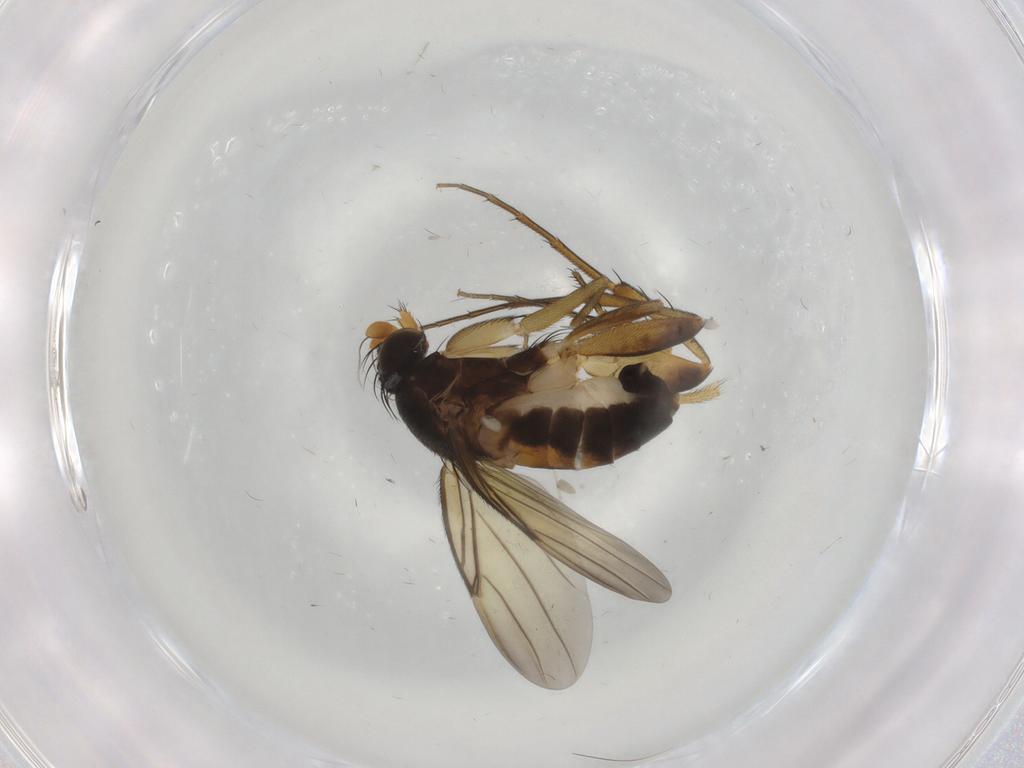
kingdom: Animalia
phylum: Arthropoda
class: Insecta
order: Diptera
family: Phoridae
